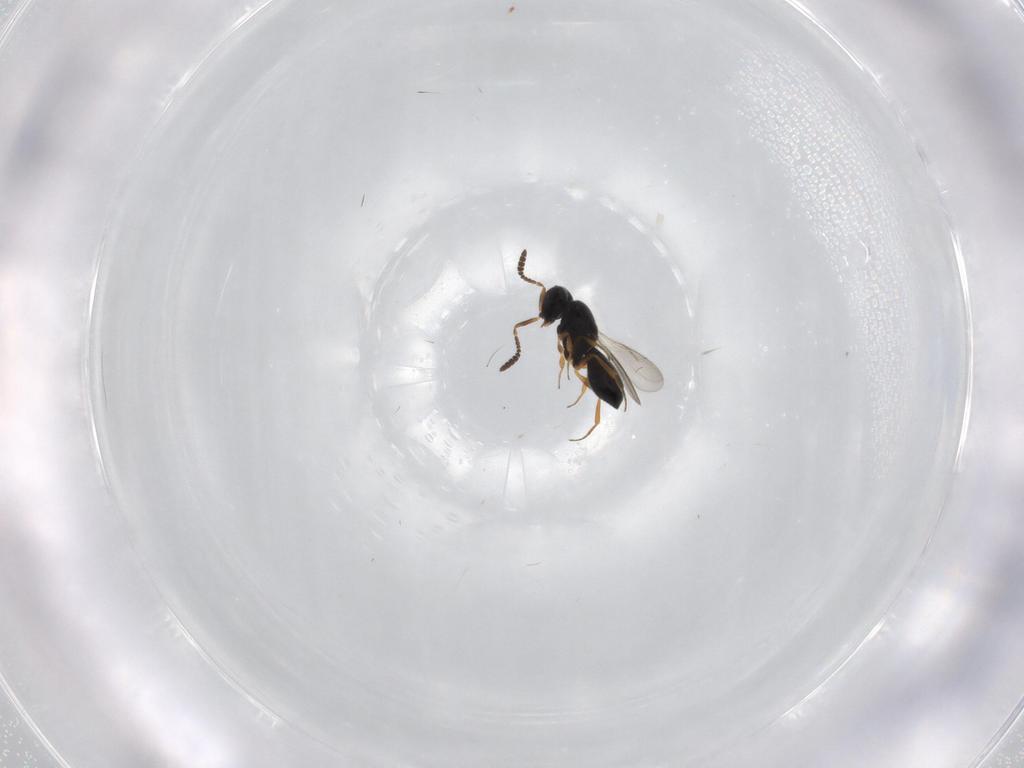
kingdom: Animalia
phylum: Arthropoda
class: Insecta
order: Hymenoptera
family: Scelionidae
